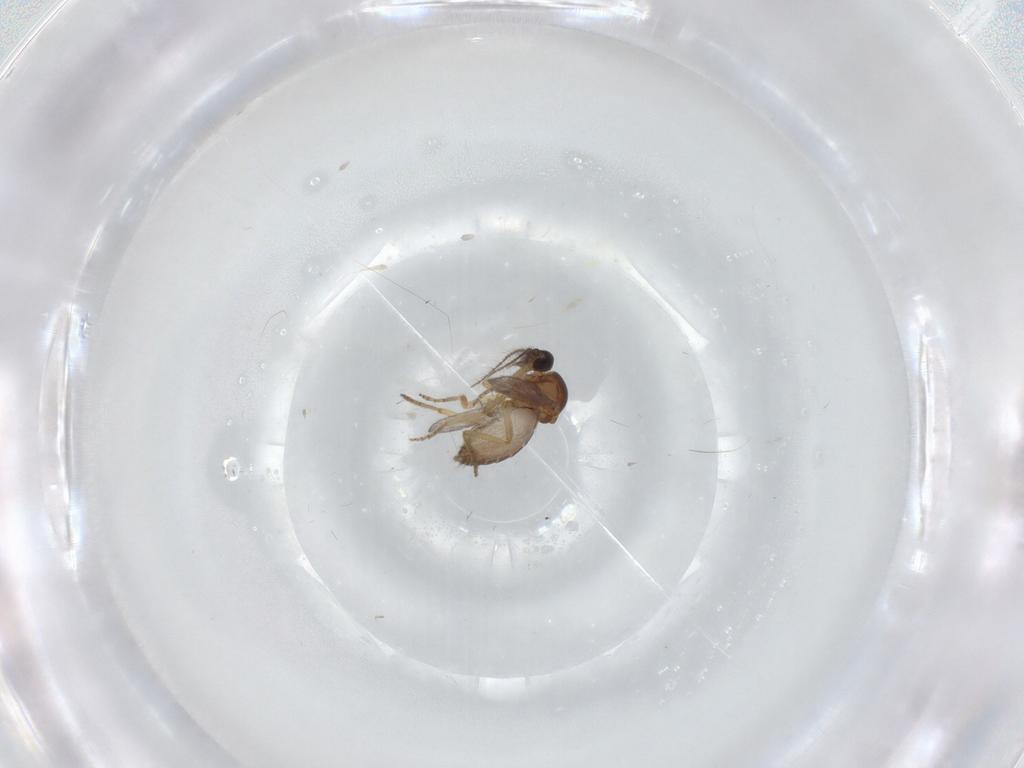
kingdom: Animalia
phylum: Arthropoda
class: Insecta
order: Diptera
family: Ceratopogonidae
